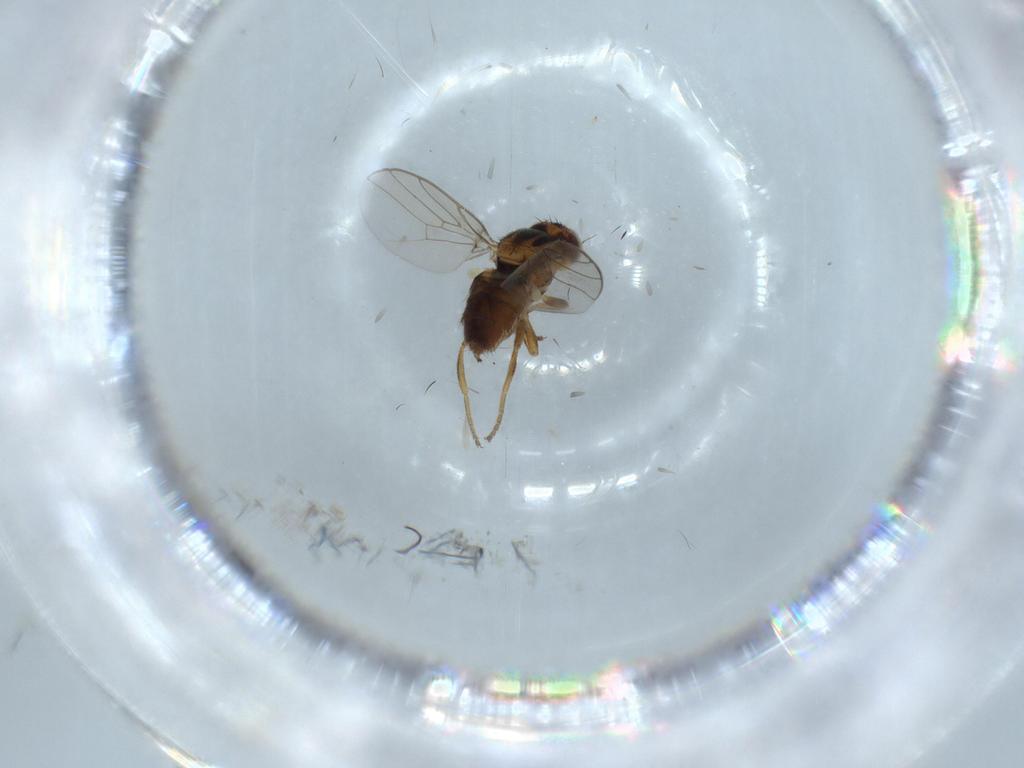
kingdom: Animalia
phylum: Arthropoda
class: Insecta
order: Diptera
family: Chloropidae
